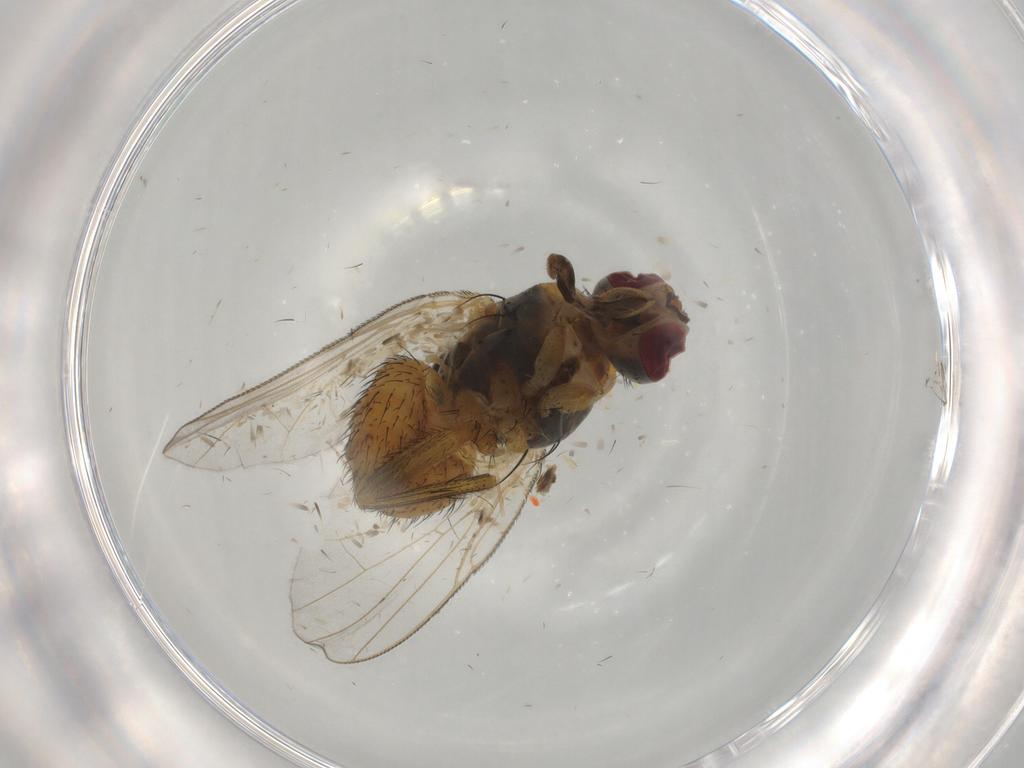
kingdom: Animalia
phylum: Arthropoda
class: Insecta
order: Diptera
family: Muscidae
